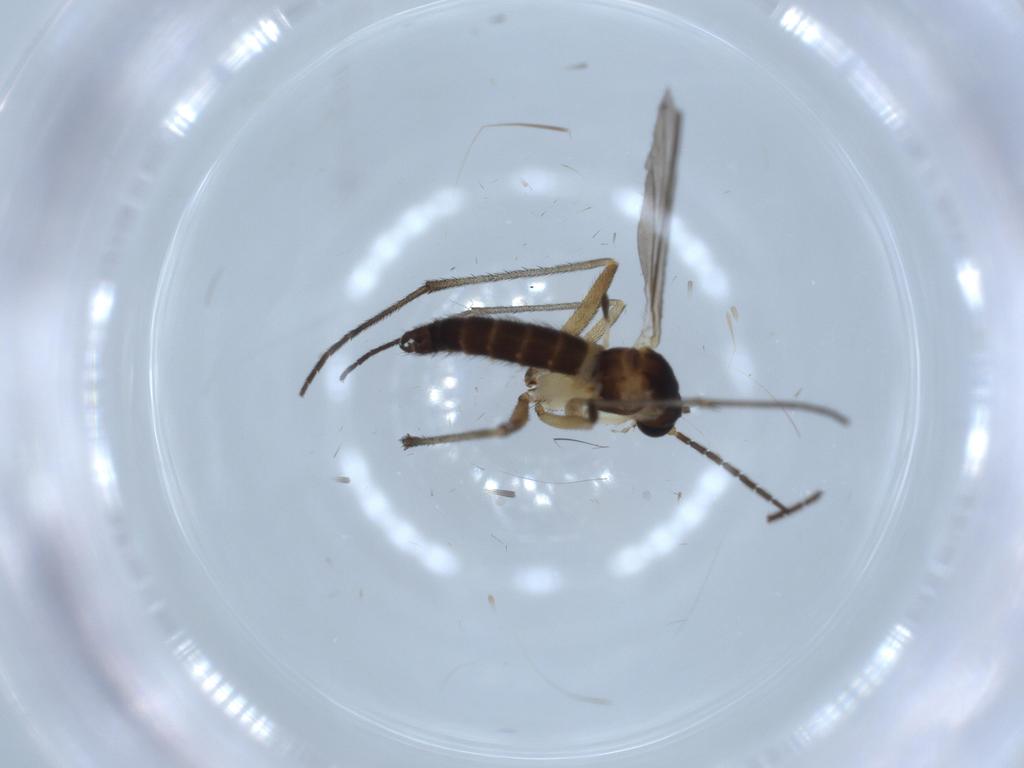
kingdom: Animalia
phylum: Arthropoda
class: Insecta
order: Diptera
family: Sciaridae
